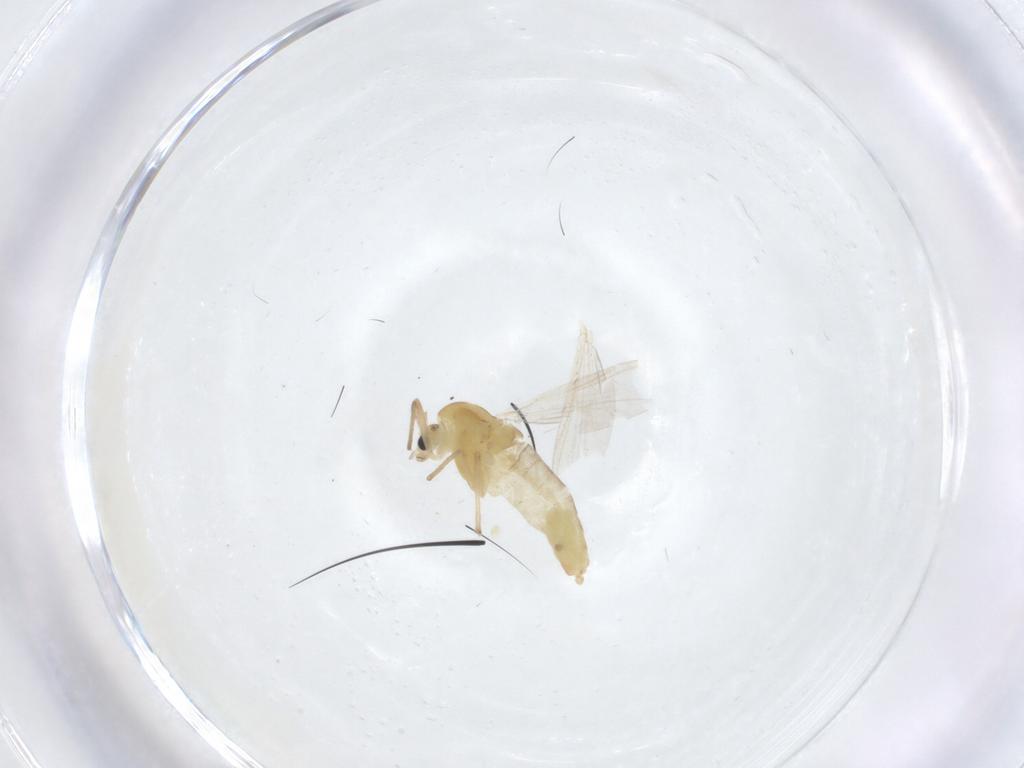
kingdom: Animalia
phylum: Arthropoda
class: Insecta
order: Diptera
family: Chironomidae
